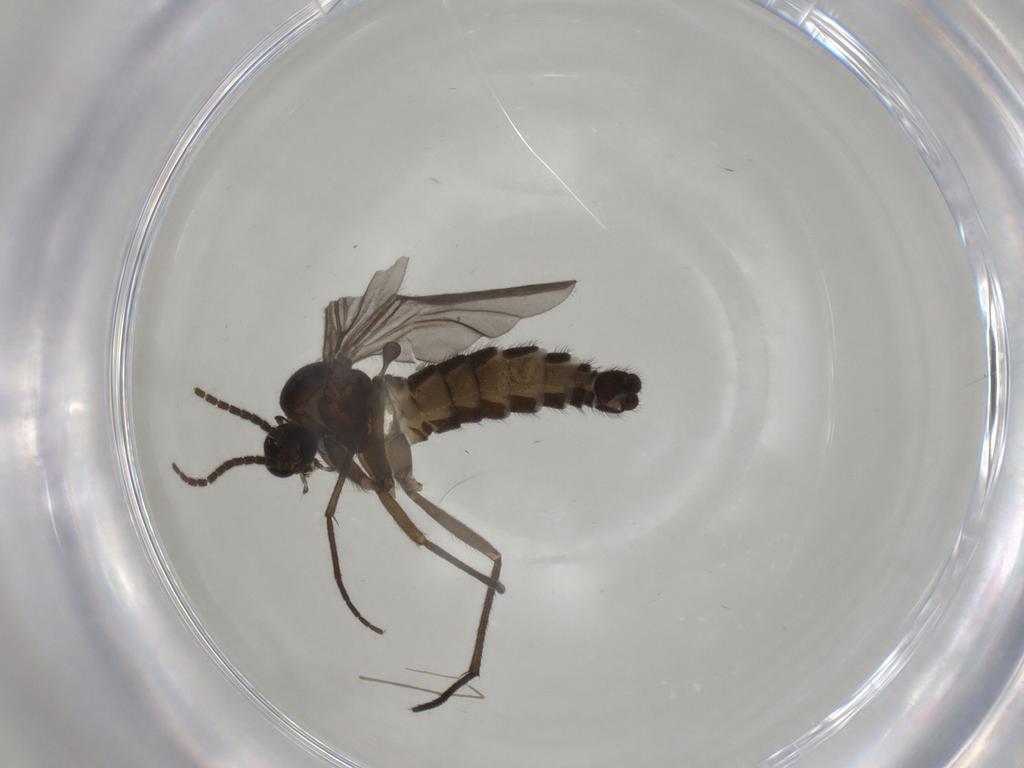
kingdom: Animalia
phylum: Arthropoda
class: Insecta
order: Diptera
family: Sciaridae
